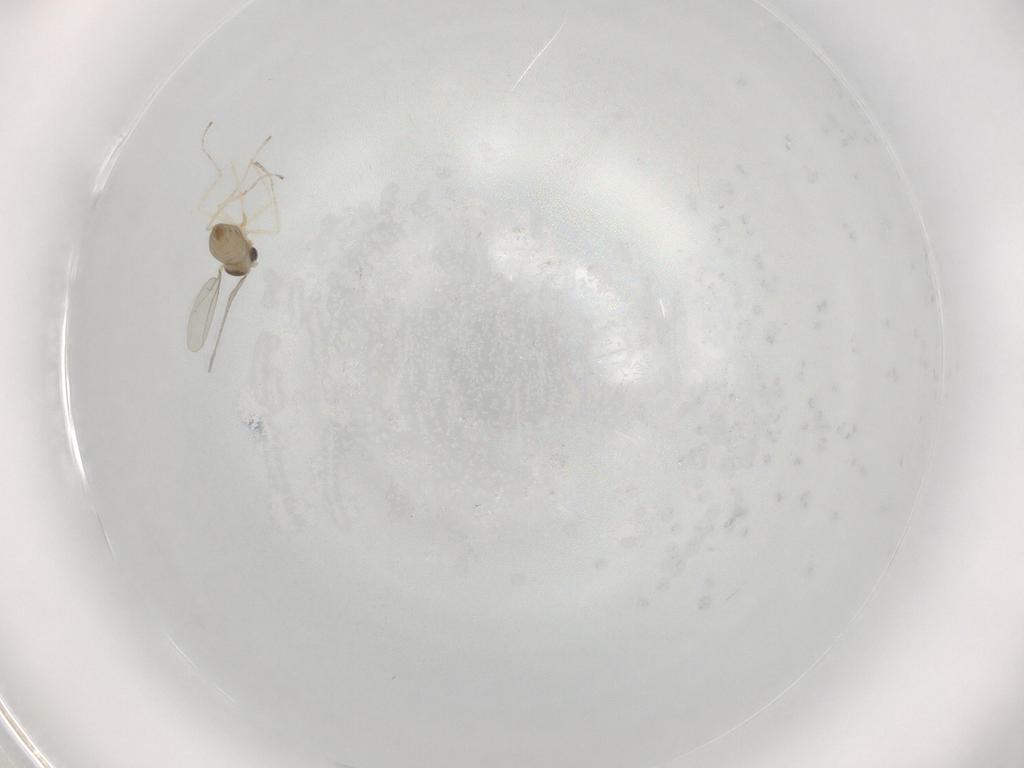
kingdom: Animalia
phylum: Arthropoda
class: Insecta
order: Diptera
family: Cecidomyiidae
